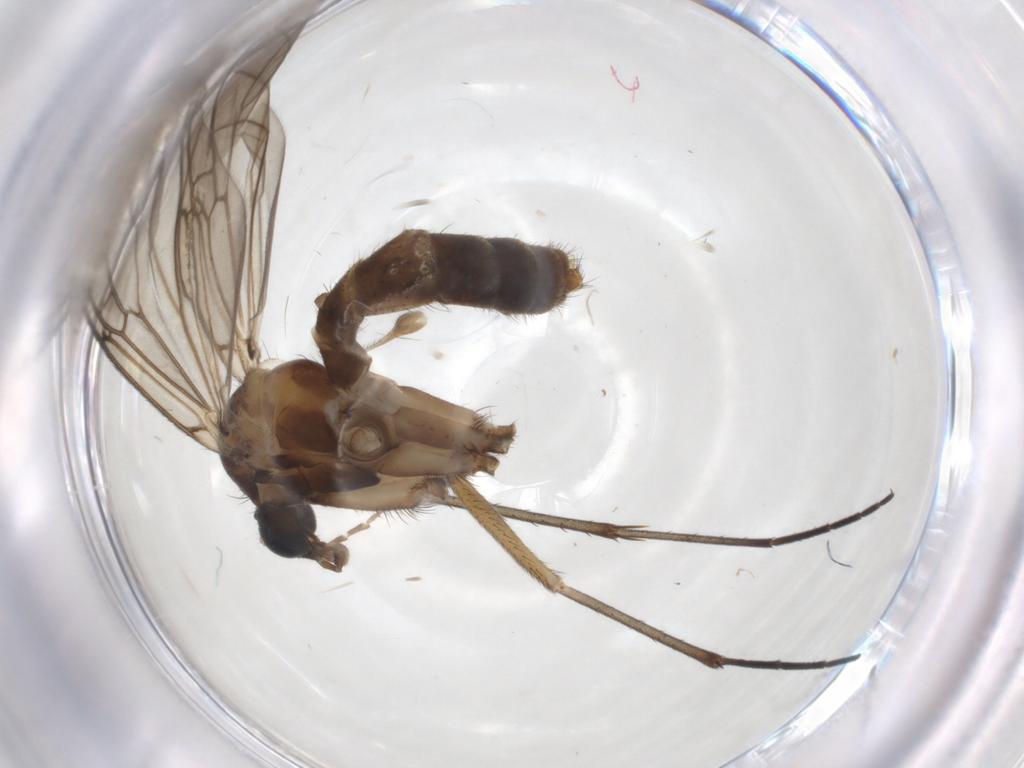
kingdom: Animalia
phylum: Arthropoda
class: Insecta
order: Diptera
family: Mycetophilidae
